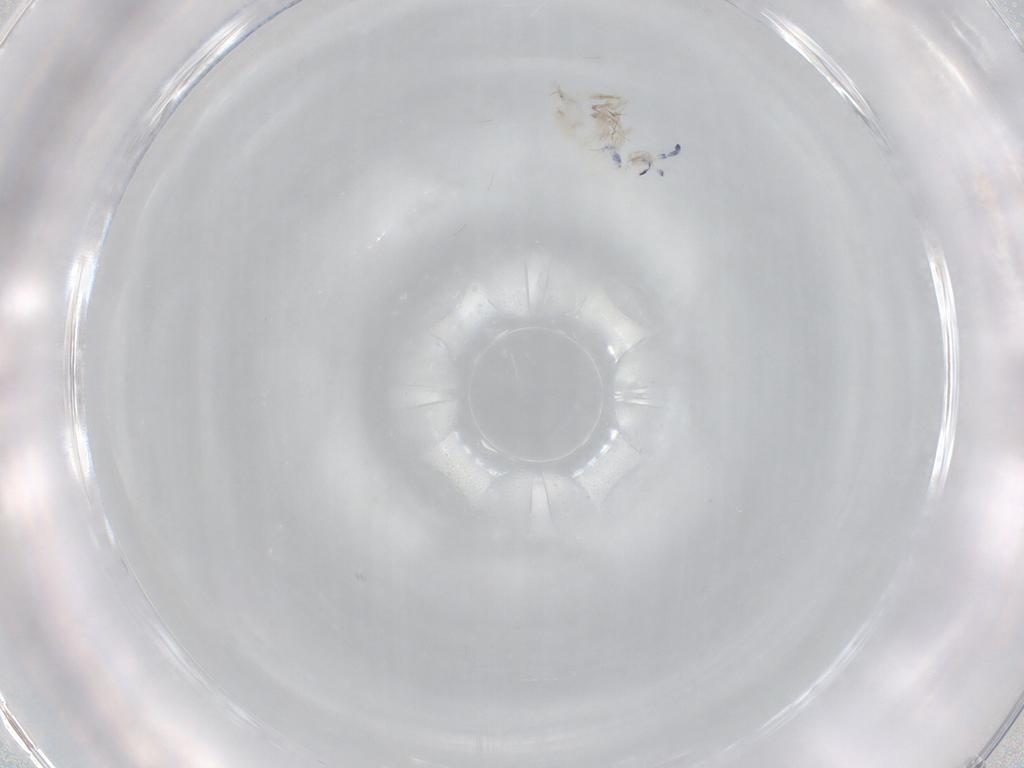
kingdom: Animalia
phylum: Arthropoda
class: Collembola
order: Entomobryomorpha
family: Entomobryidae
